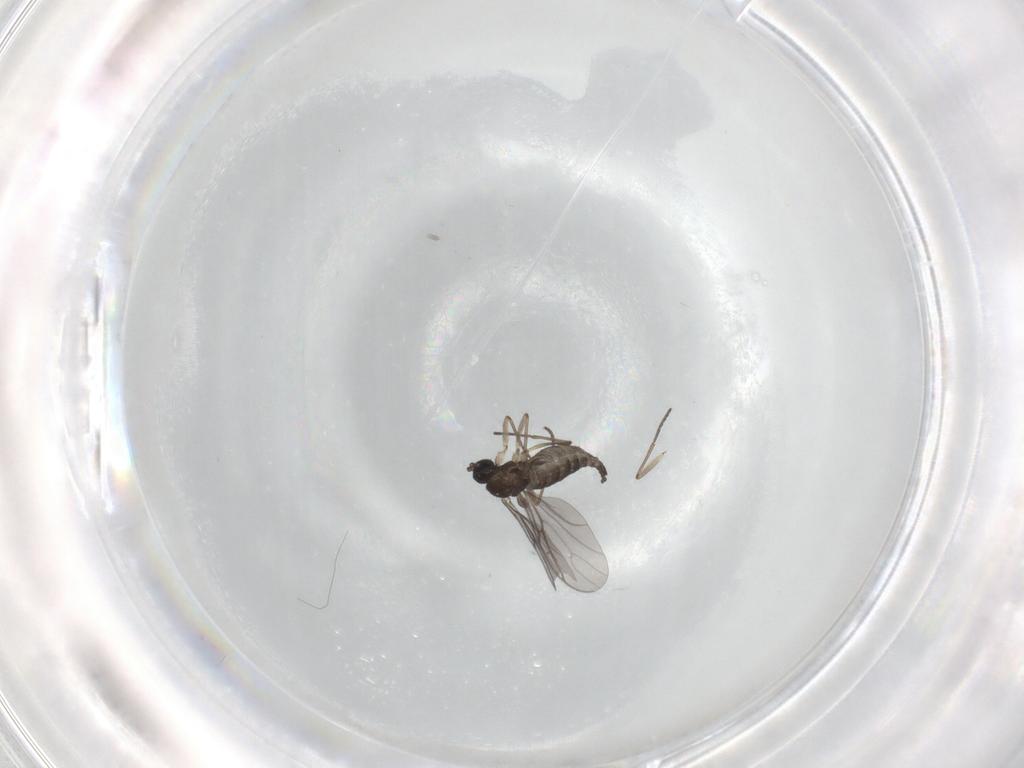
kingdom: Animalia
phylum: Arthropoda
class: Insecta
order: Diptera
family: Sciaridae
